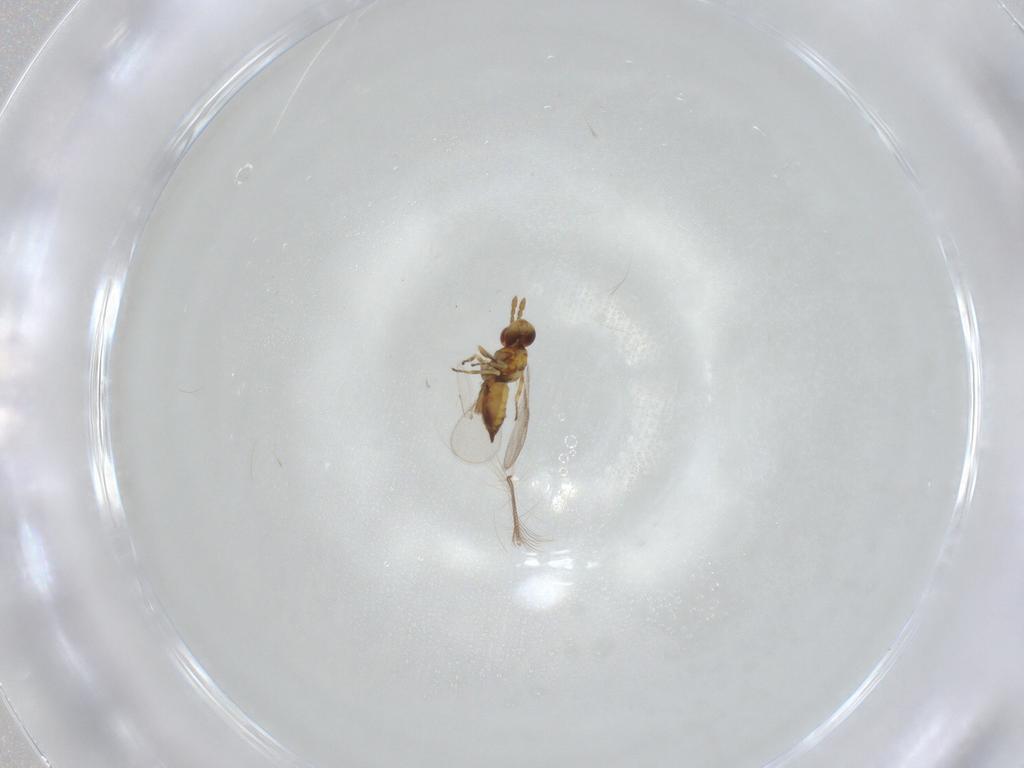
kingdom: Animalia
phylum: Arthropoda
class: Insecta
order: Hymenoptera
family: Eulophidae
